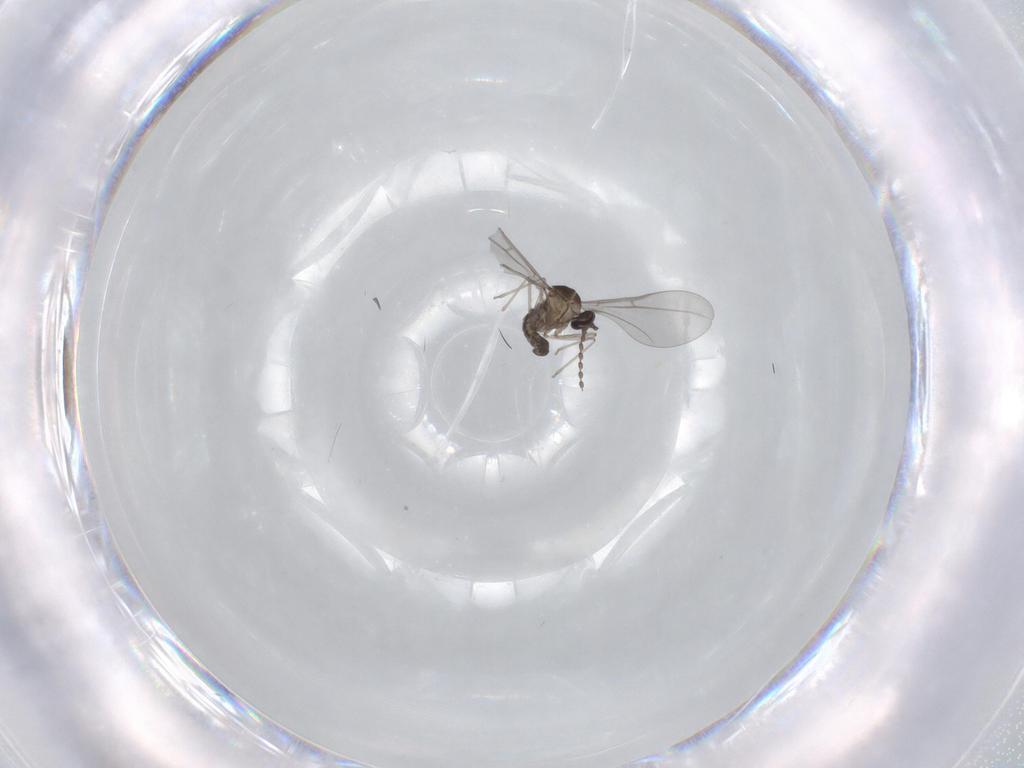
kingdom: Animalia
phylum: Arthropoda
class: Insecta
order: Diptera
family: Cecidomyiidae
